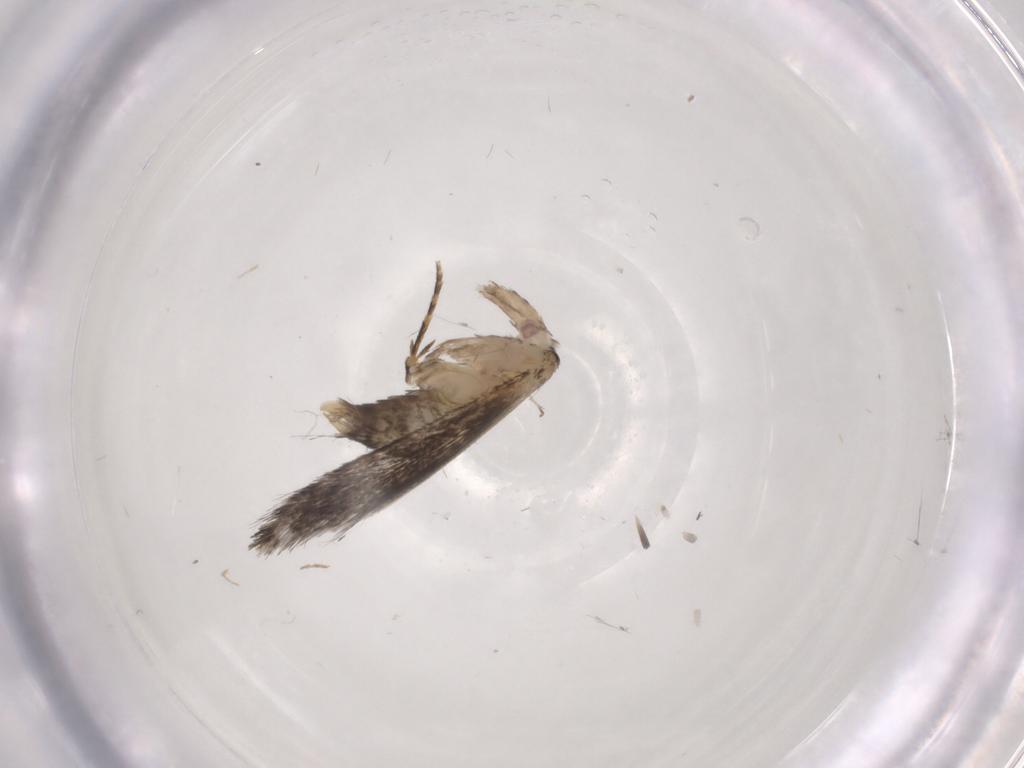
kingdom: Animalia
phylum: Arthropoda
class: Insecta
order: Lepidoptera
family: Tineidae
